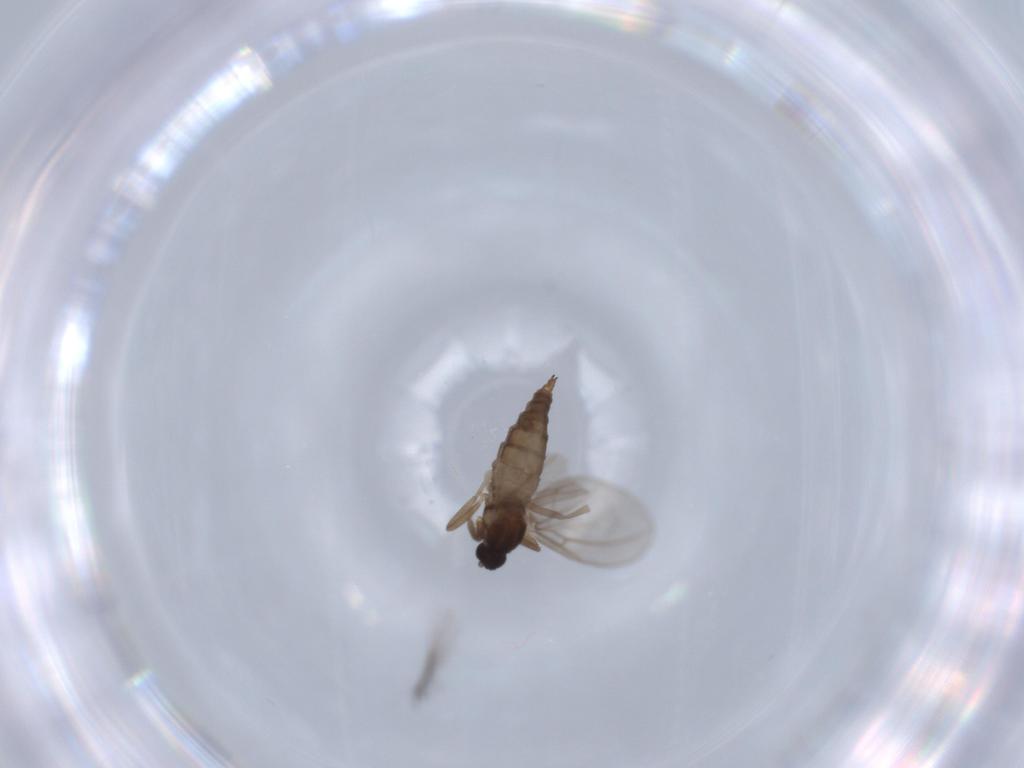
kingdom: Animalia
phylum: Arthropoda
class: Insecta
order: Diptera
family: Cecidomyiidae
